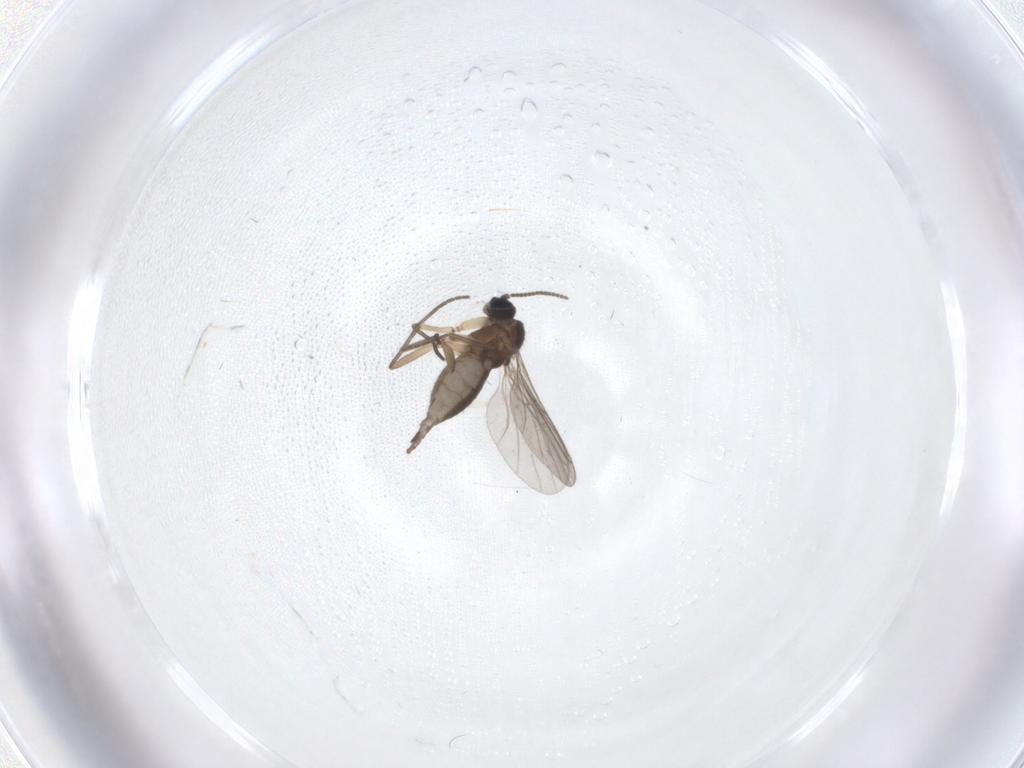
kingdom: Animalia
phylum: Arthropoda
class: Insecta
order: Diptera
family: Sciaridae
